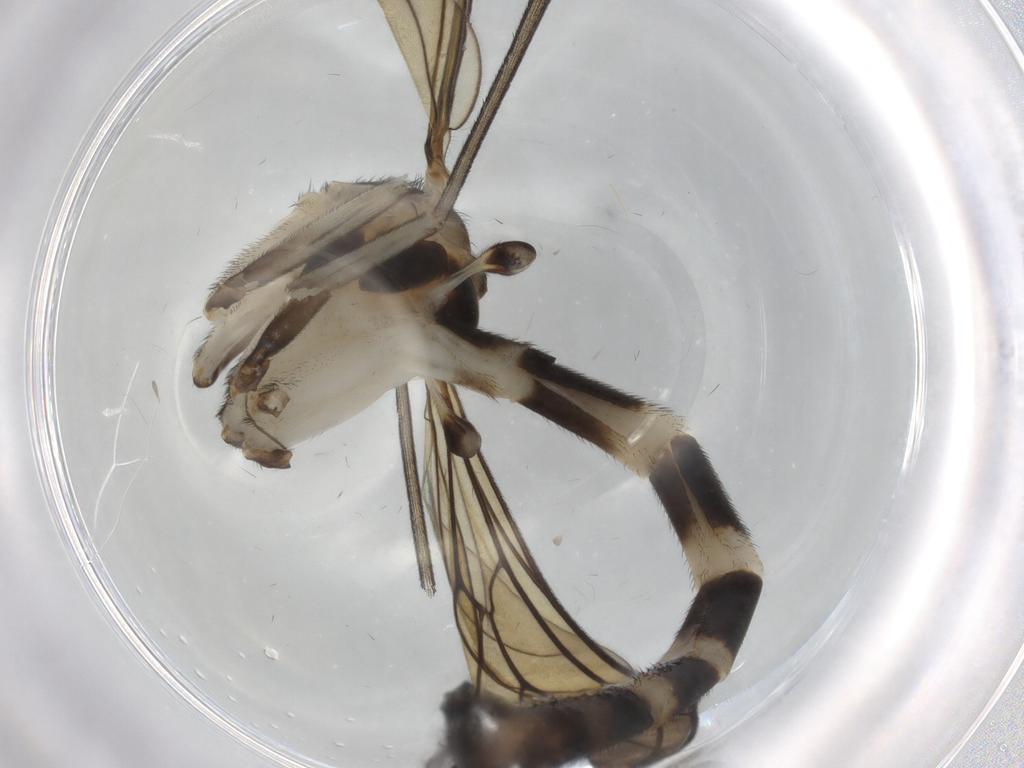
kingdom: Animalia
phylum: Arthropoda
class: Insecta
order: Diptera
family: Keroplatidae
